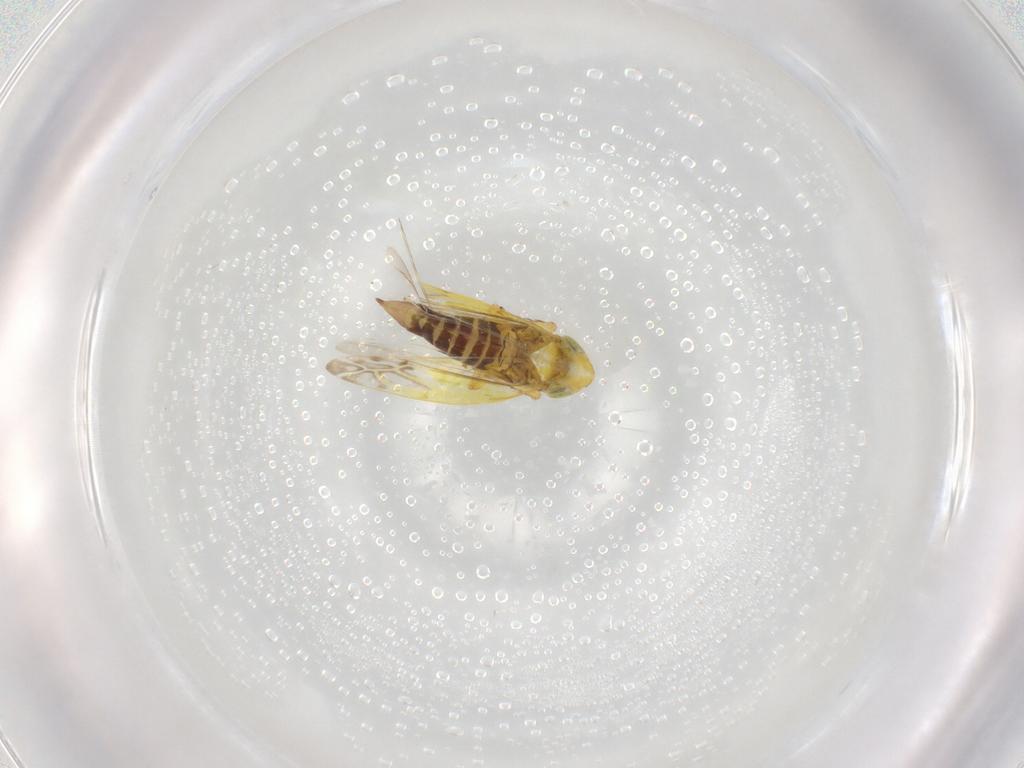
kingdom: Animalia
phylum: Arthropoda
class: Insecta
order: Hemiptera
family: Cicadellidae
